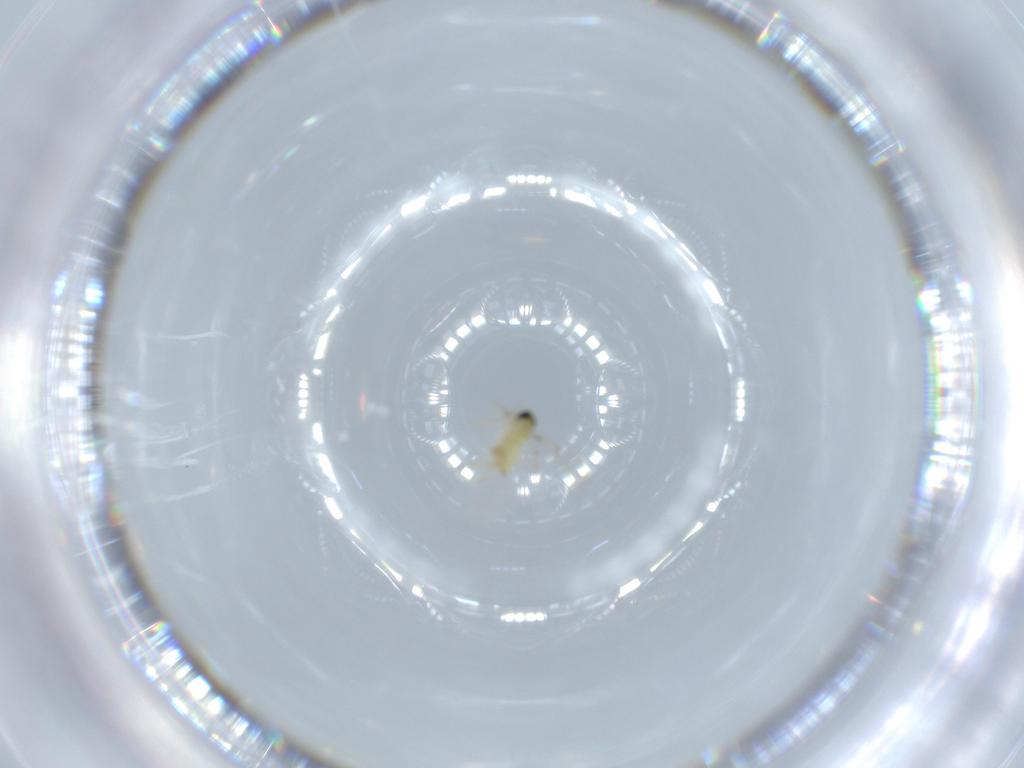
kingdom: Animalia
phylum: Arthropoda
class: Insecta
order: Hymenoptera
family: Trichogrammatidae
